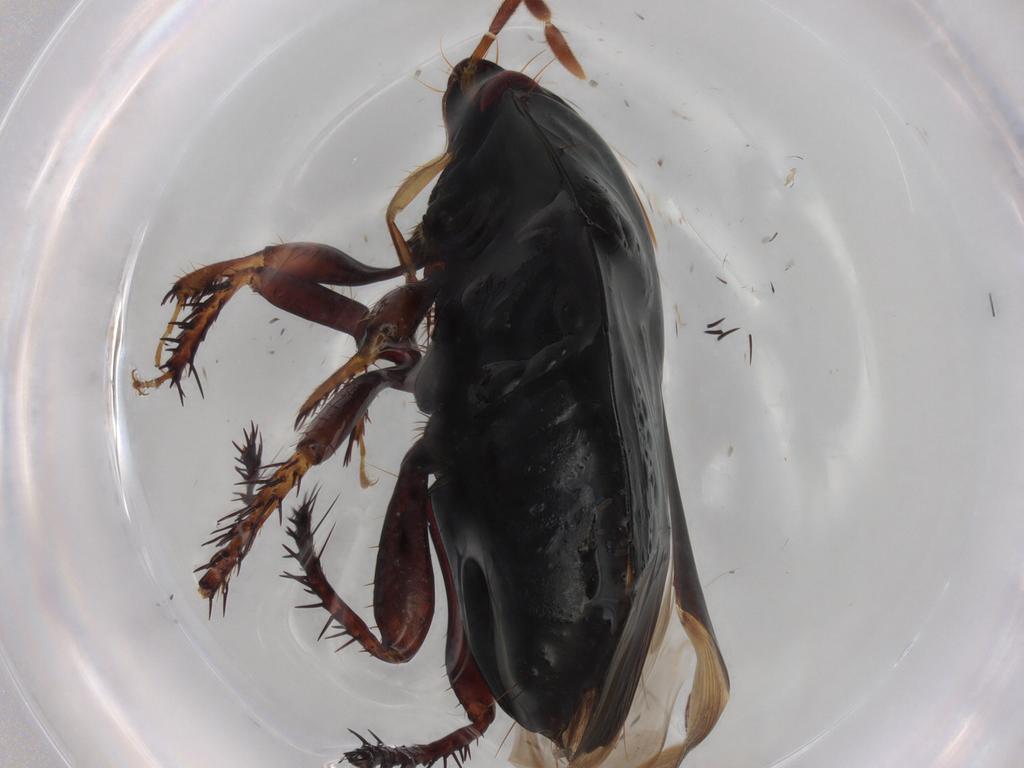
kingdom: Animalia
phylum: Arthropoda
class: Insecta
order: Hemiptera
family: Cydnidae
